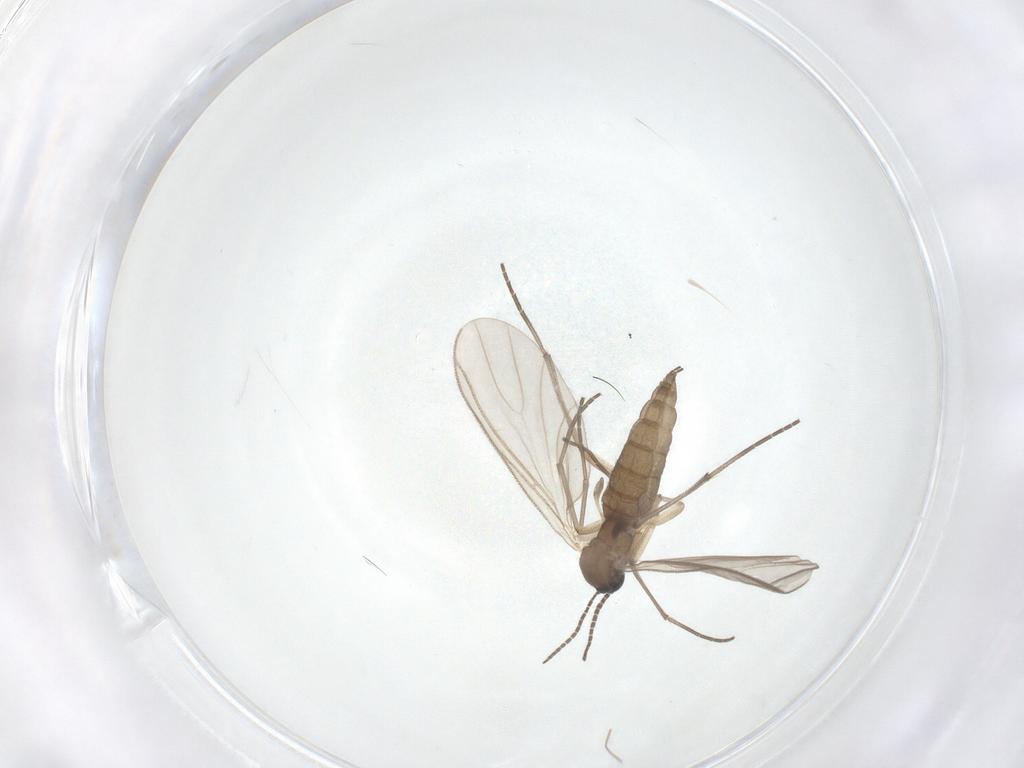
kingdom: Animalia
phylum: Arthropoda
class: Insecta
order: Diptera
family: Sciaridae
